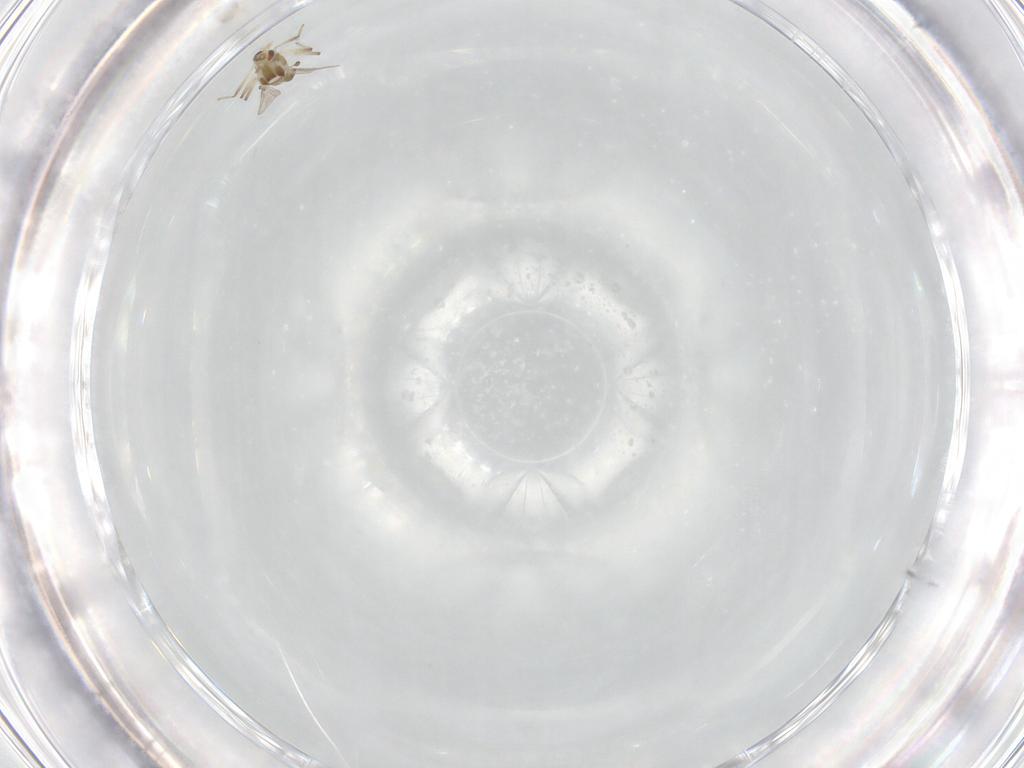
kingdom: Animalia
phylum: Arthropoda
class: Insecta
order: Diptera
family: Chironomidae
